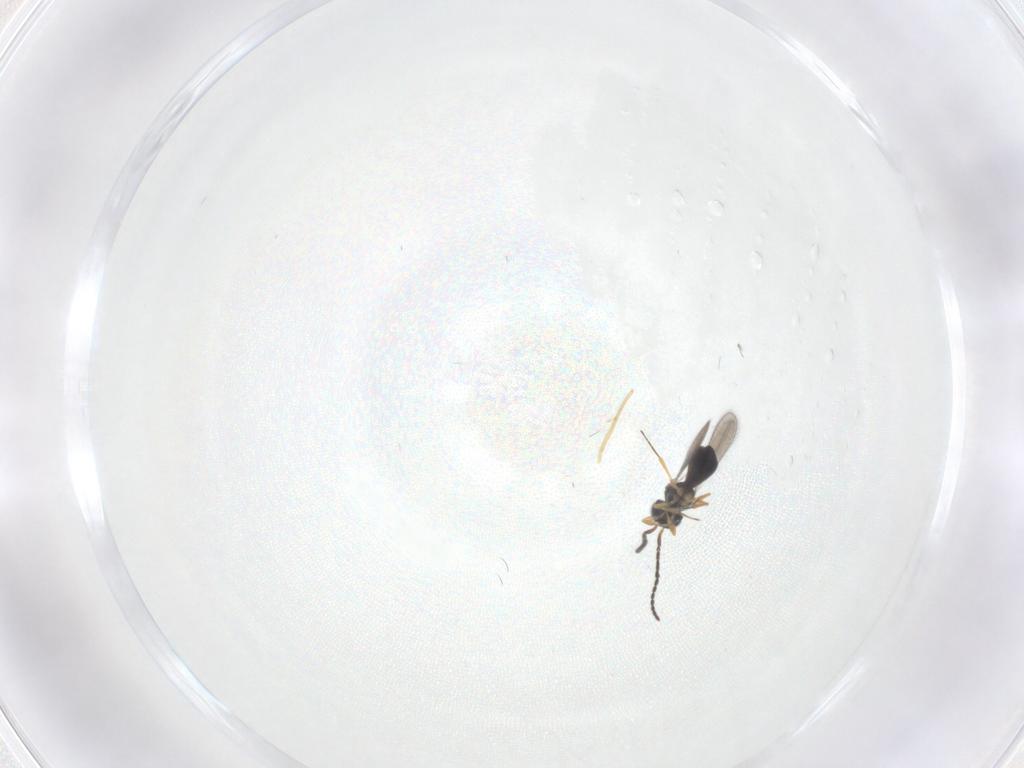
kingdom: Animalia
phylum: Arthropoda
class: Insecta
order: Hymenoptera
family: Scelionidae
